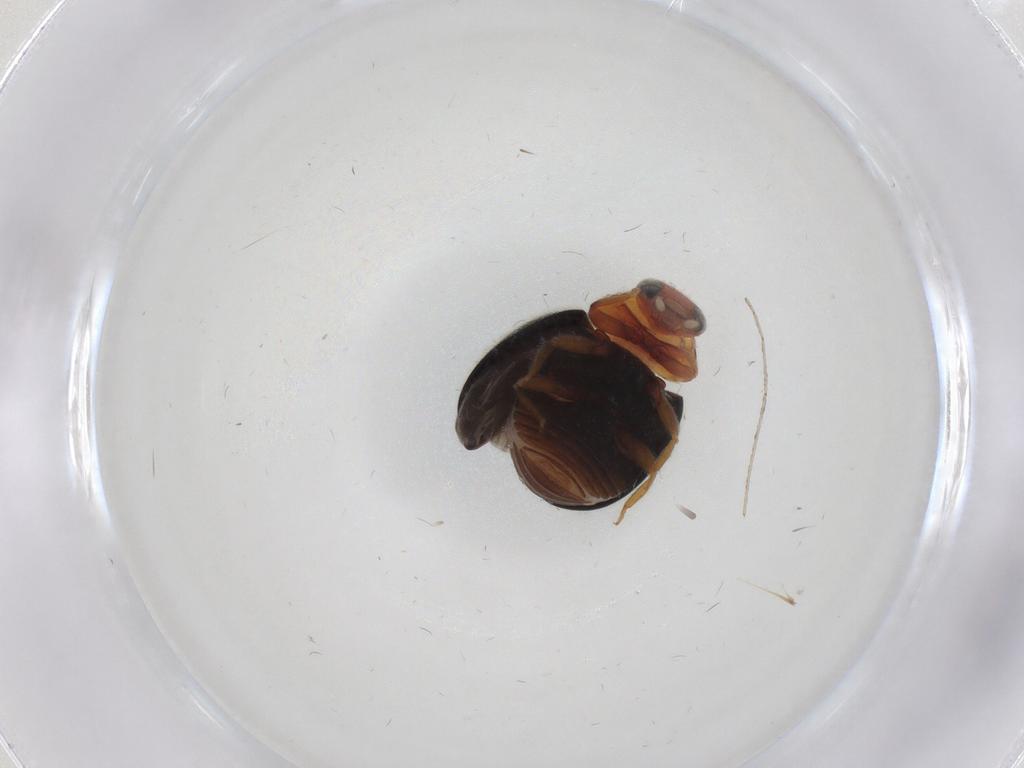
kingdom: Animalia
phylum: Arthropoda
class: Insecta
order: Coleoptera
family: Coccinellidae
